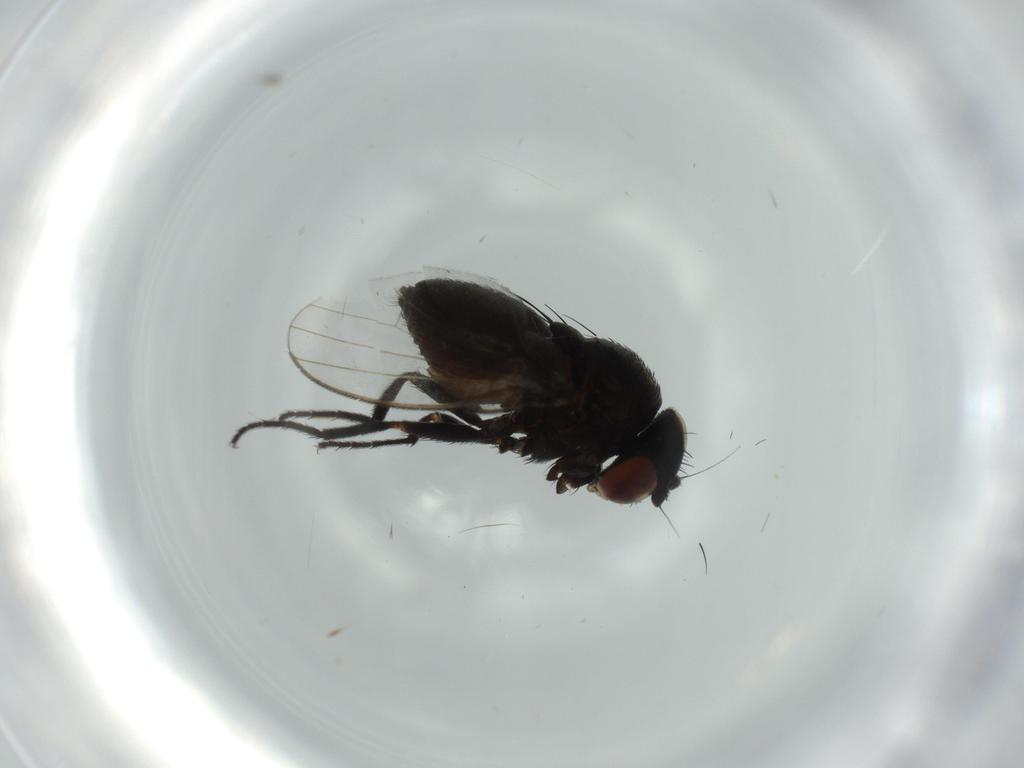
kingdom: Animalia
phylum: Arthropoda
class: Insecta
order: Diptera
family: Milichiidae
